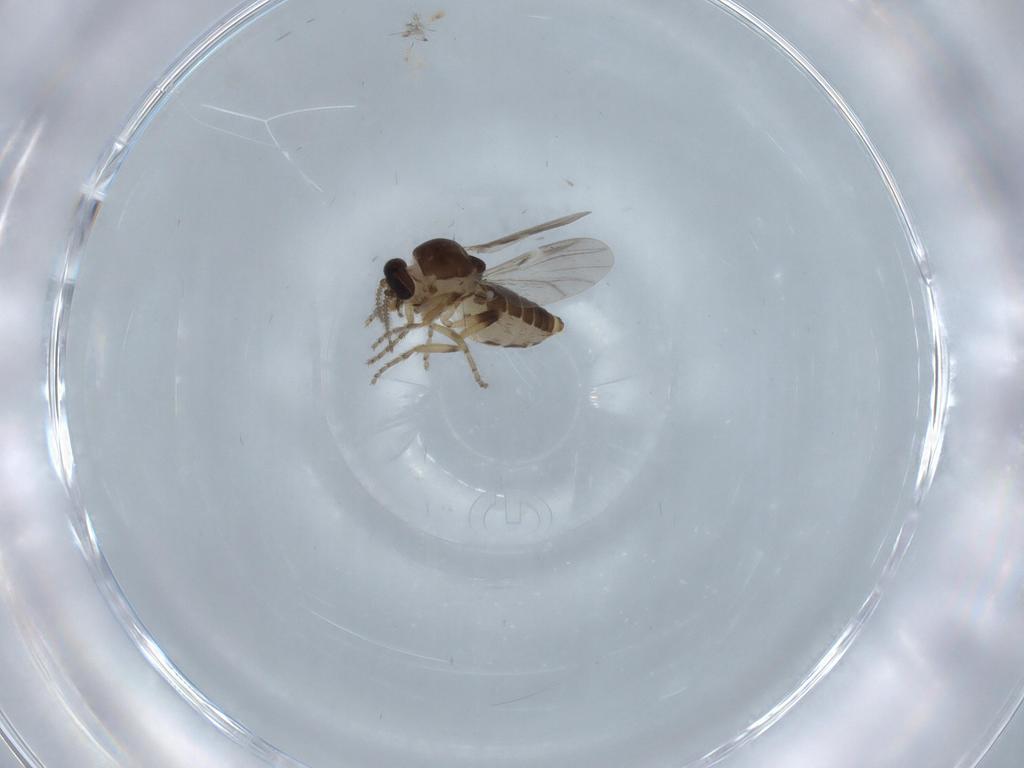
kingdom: Animalia
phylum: Arthropoda
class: Insecta
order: Diptera
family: Ceratopogonidae
